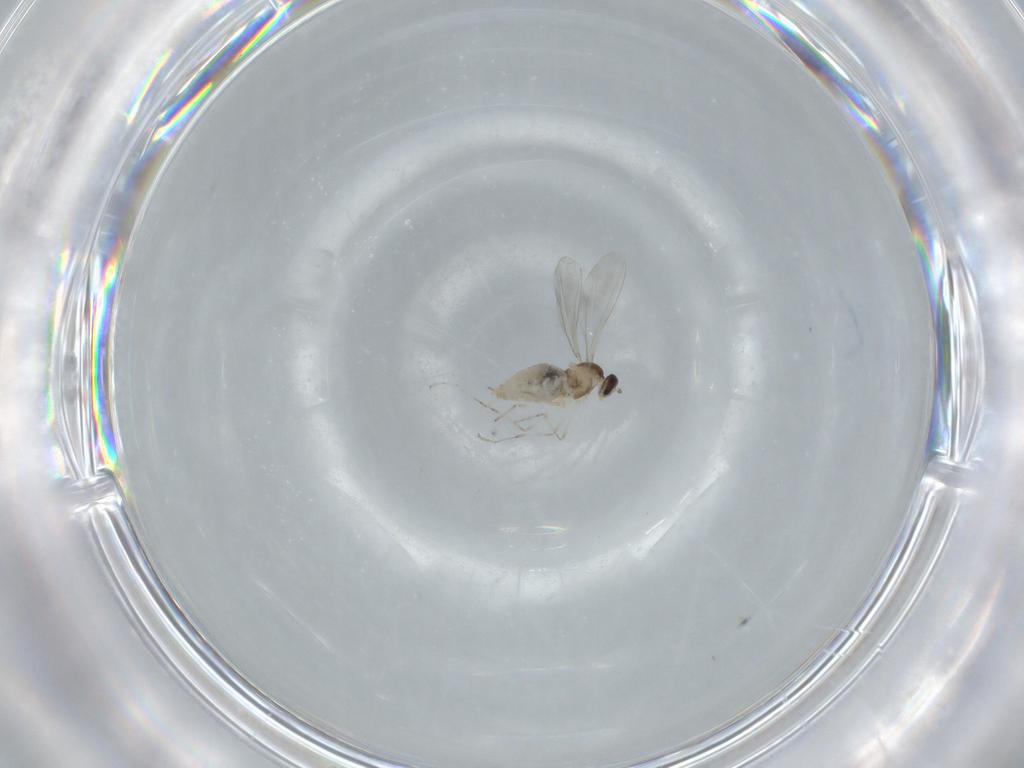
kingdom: Animalia
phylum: Arthropoda
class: Insecta
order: Diptera
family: Cecidomyiidae
